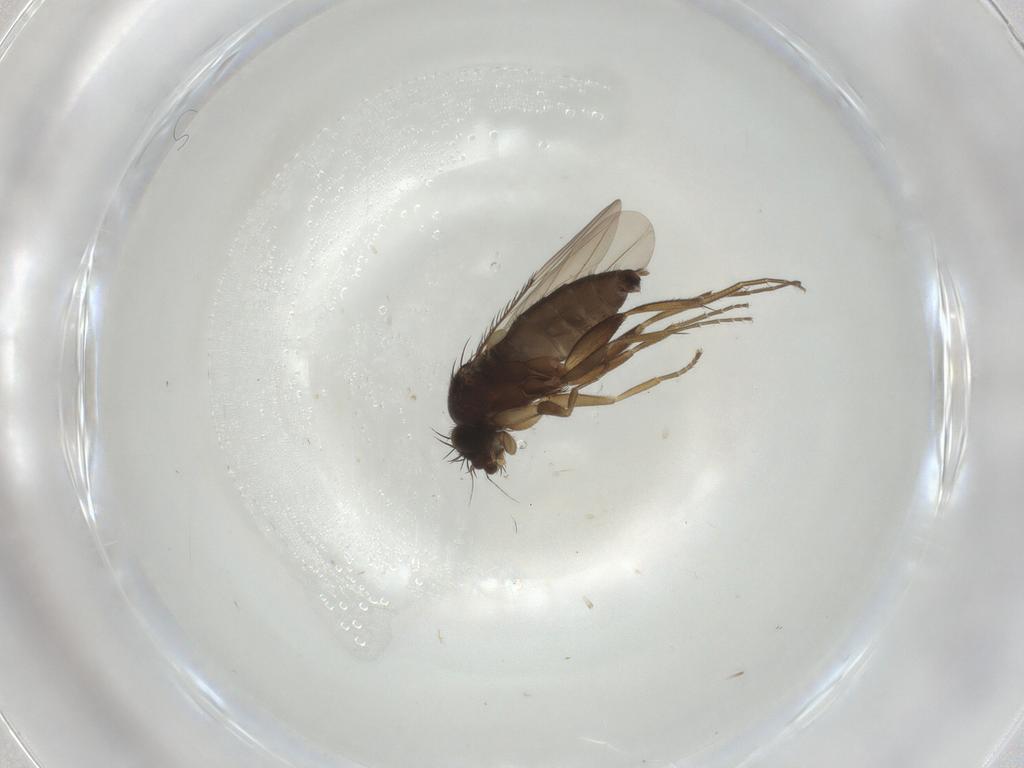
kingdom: Animalia
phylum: Arthropoda
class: Insecta
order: Diptera
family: Phoridae
